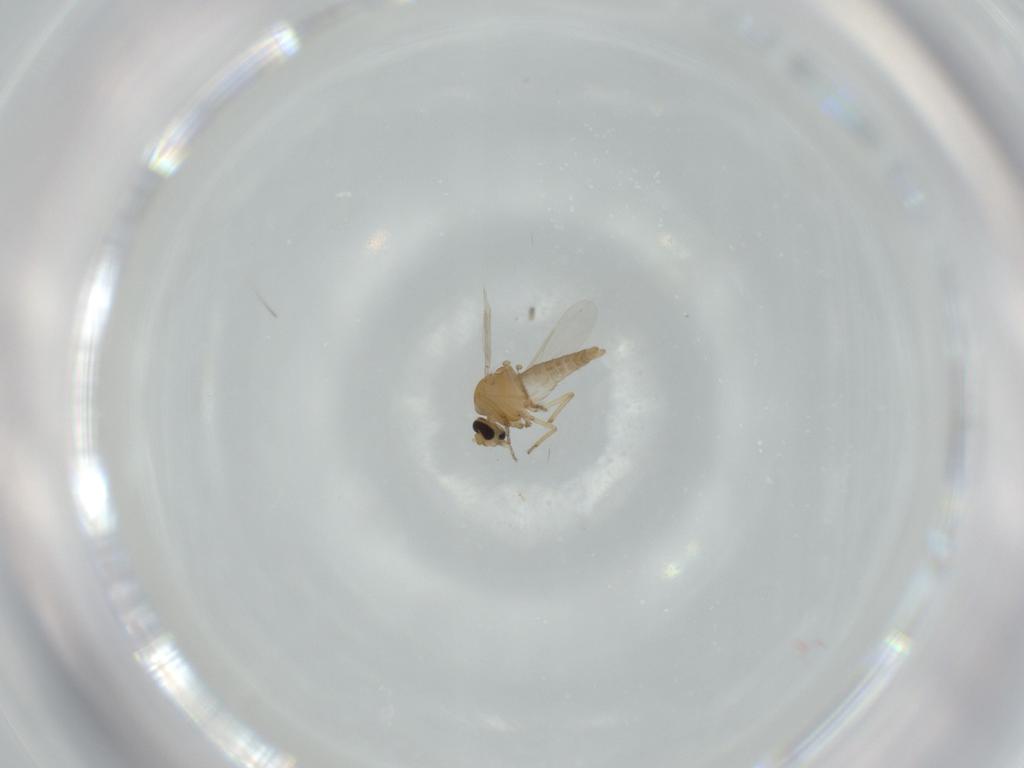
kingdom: Animalia
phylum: Arthropoda
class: Insecta
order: Diptera
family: Ceratopogonidae
